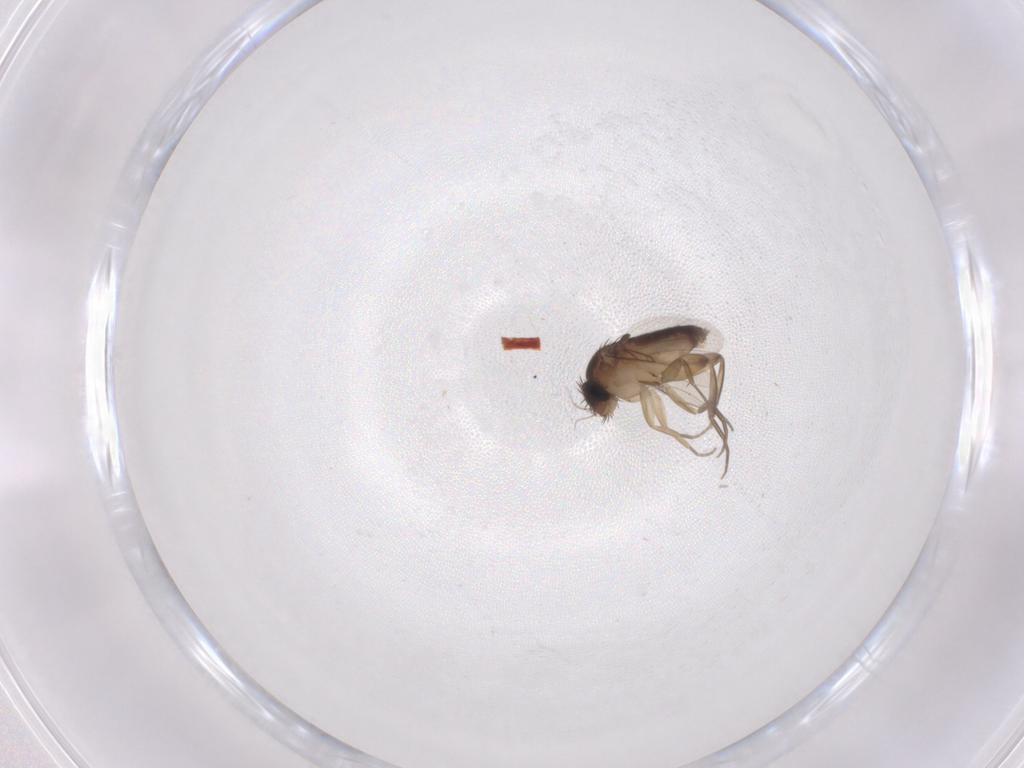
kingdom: Animalia
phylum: Arthropoda
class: Insecta
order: Diptera
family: Phoridae
